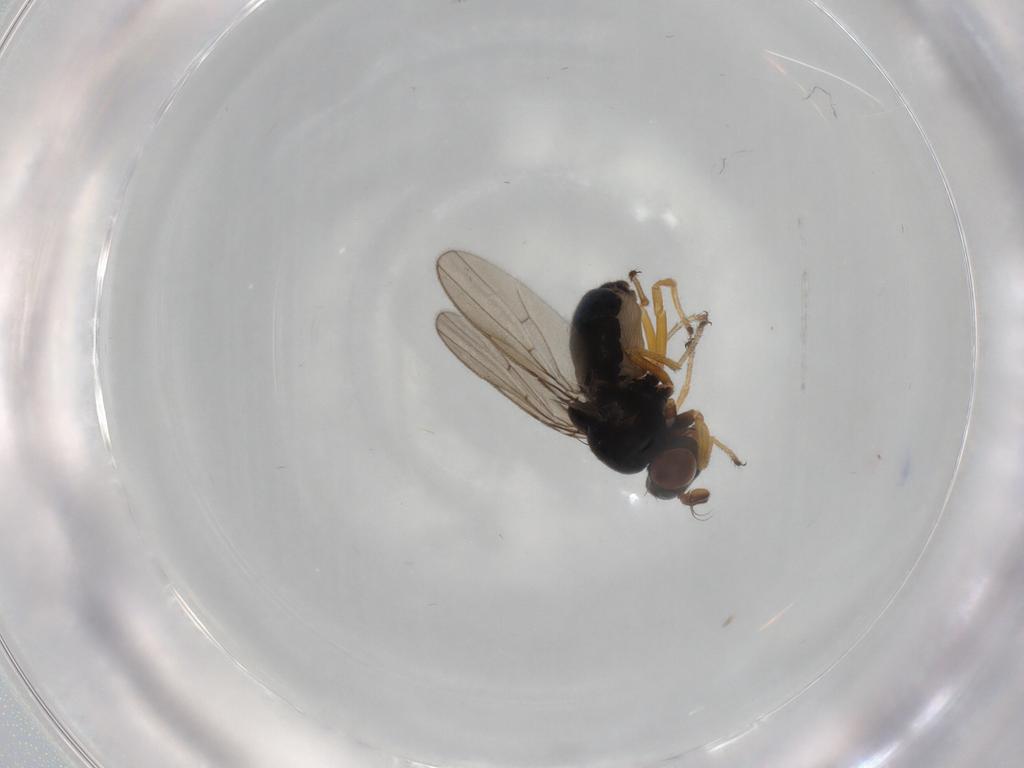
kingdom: Animalia
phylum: Arthropoda
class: Insecta
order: Diptera
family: Ephydridae
